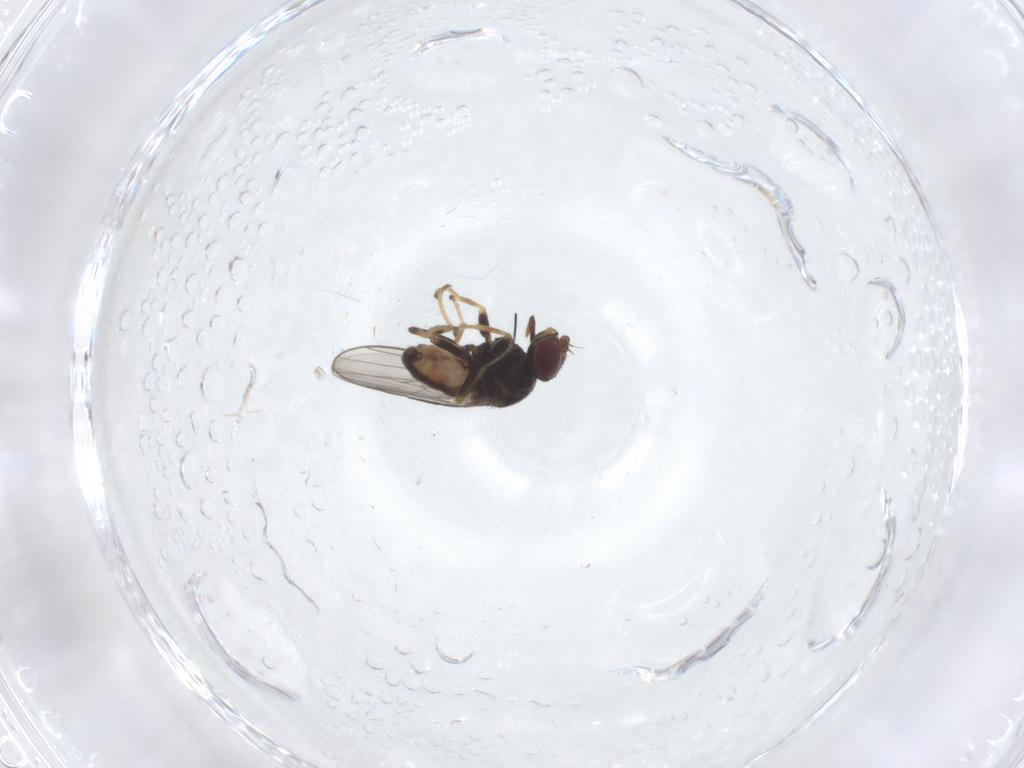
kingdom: Animalia
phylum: Arthropoda
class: Insecta
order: Diptera
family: Chloropidae
